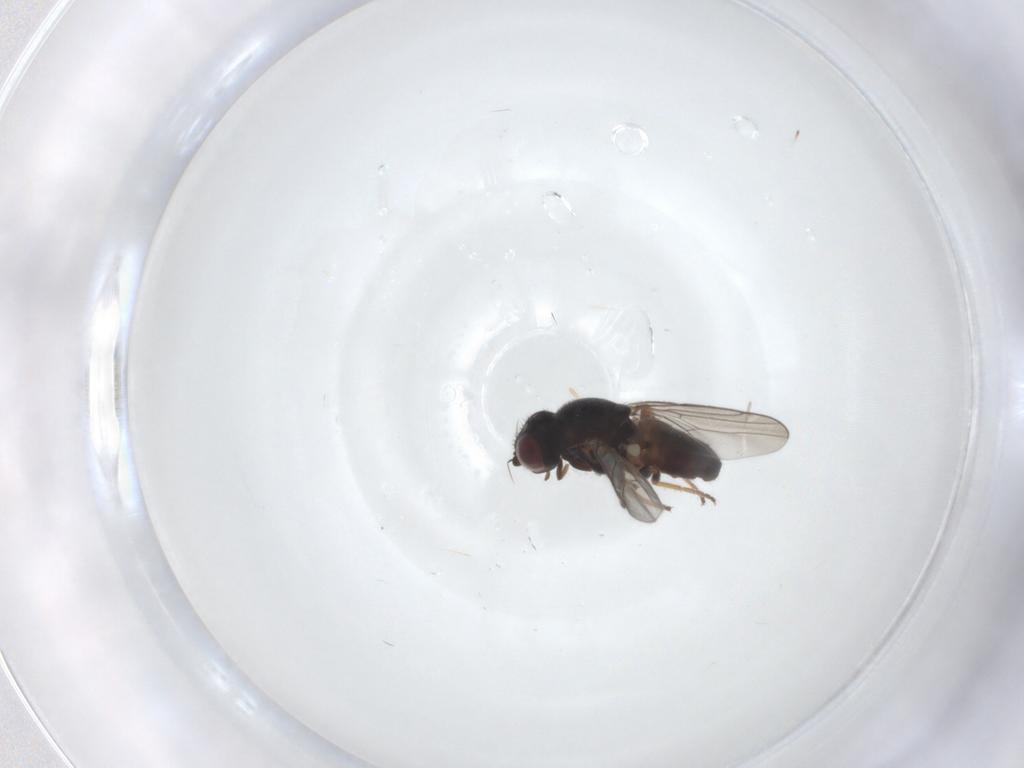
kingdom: Animalia
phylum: Arthropoda
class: Insecta
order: Diptera
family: Chloropidae
